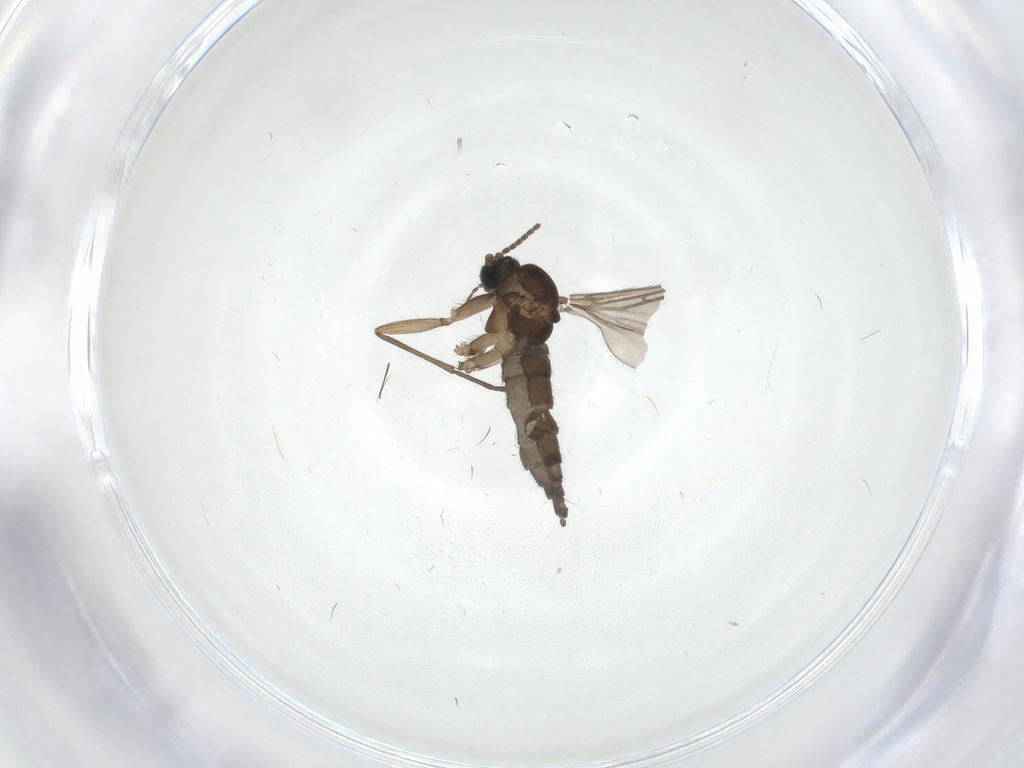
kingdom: Animalia
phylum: Arthropoda
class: Insecta
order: Diptera
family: Sciaridae
